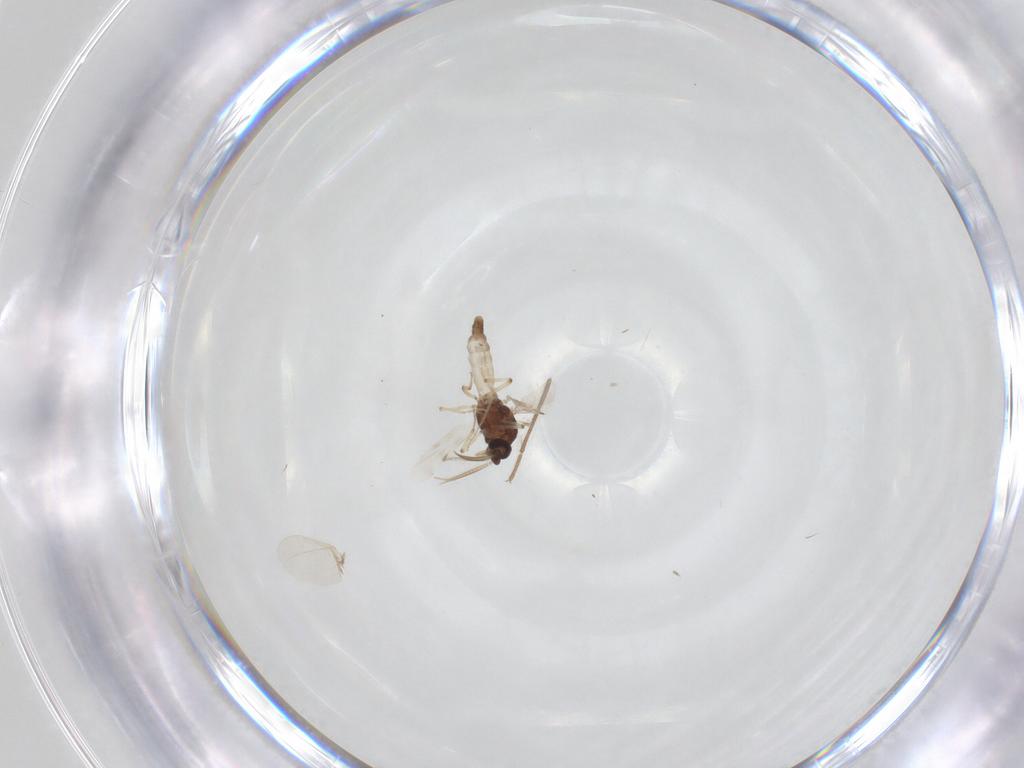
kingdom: Animalia
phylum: Arthropoda
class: Insecta
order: Diptera
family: Chironomidae
